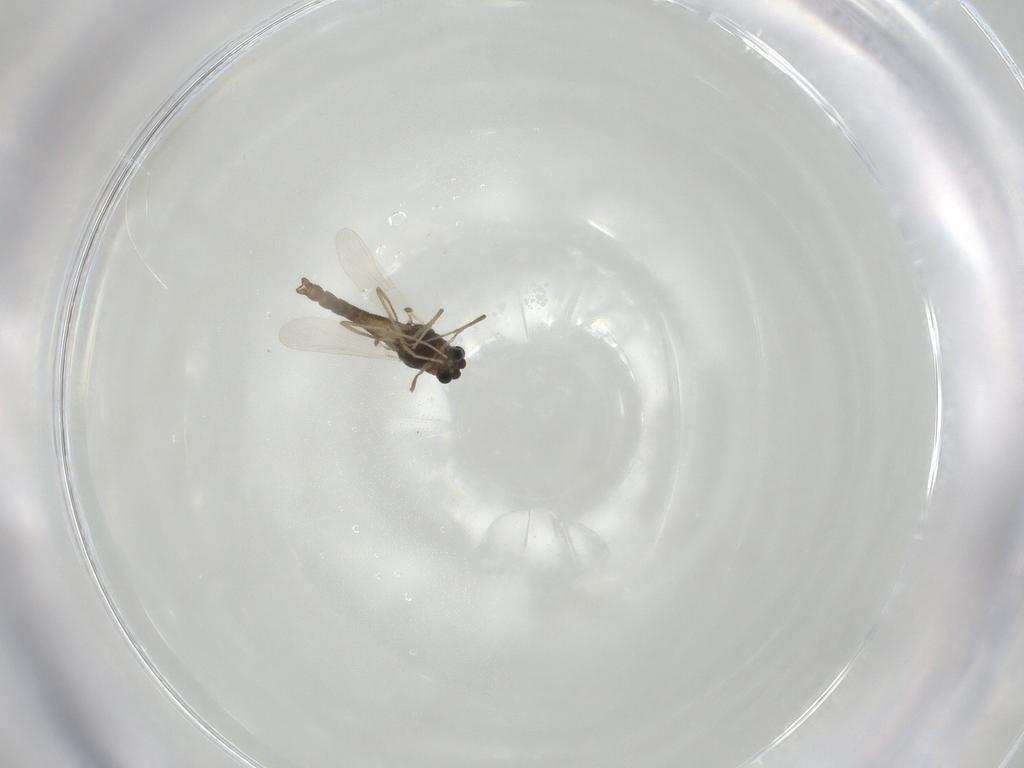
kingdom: Animalia
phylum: Arthropoda
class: Insecta
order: Diptera
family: Chironomidae
